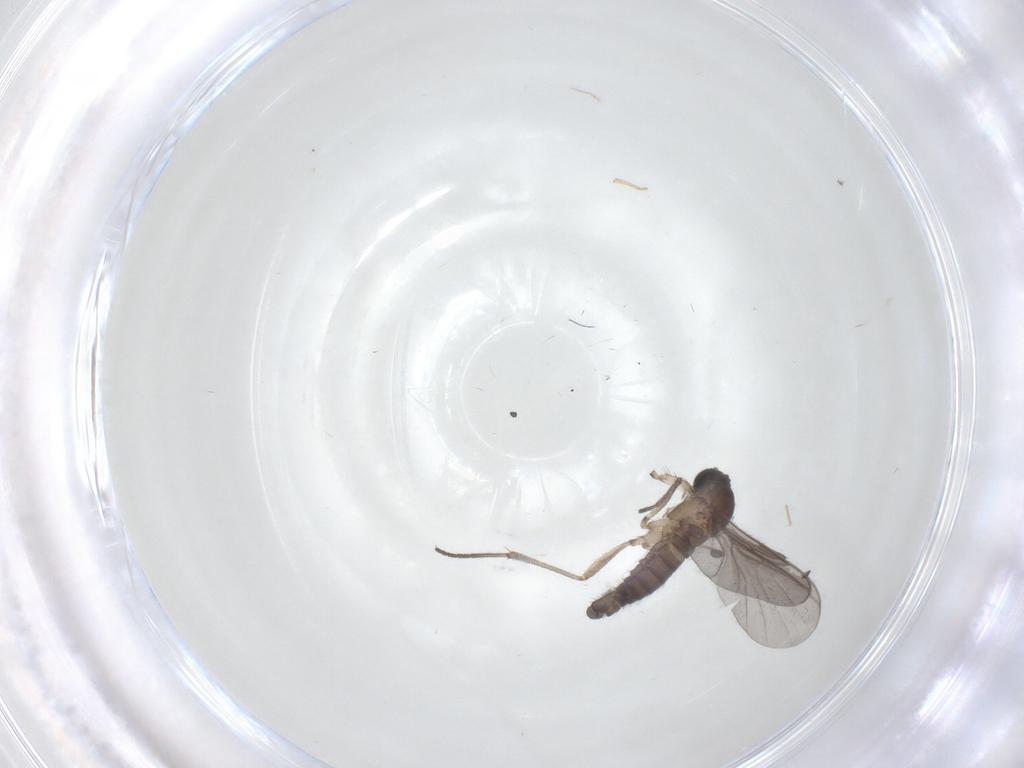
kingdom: Animalia
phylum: Arthropoda
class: Insecta
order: Diptera
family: Phoridae
